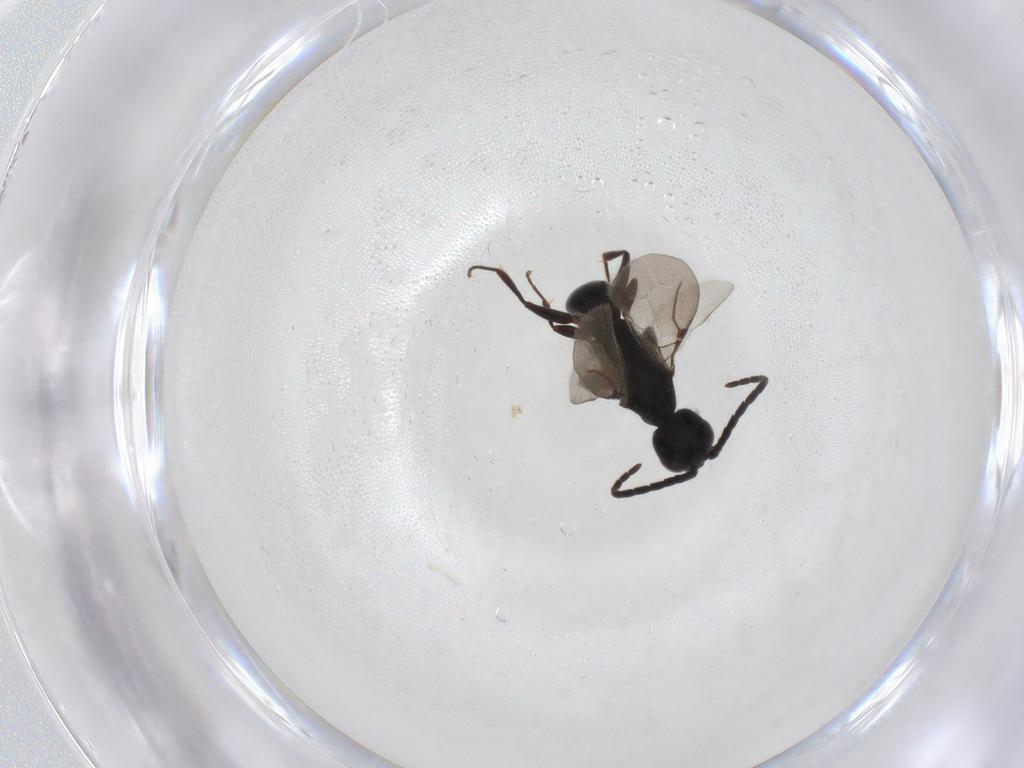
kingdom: Animalia
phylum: Arthropoda
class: Insecta
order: Hymenoptera
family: Bethylidae
